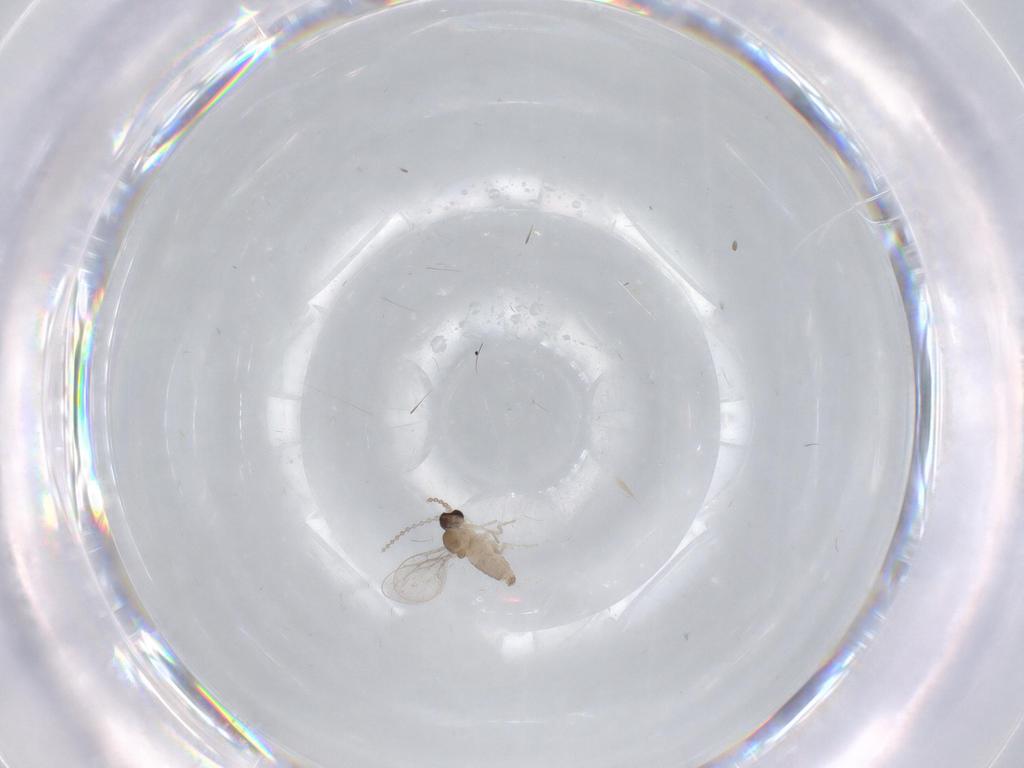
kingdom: Animalia
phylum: Arthropoda
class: Insecta
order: Diptera
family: Cecidomyiidae
